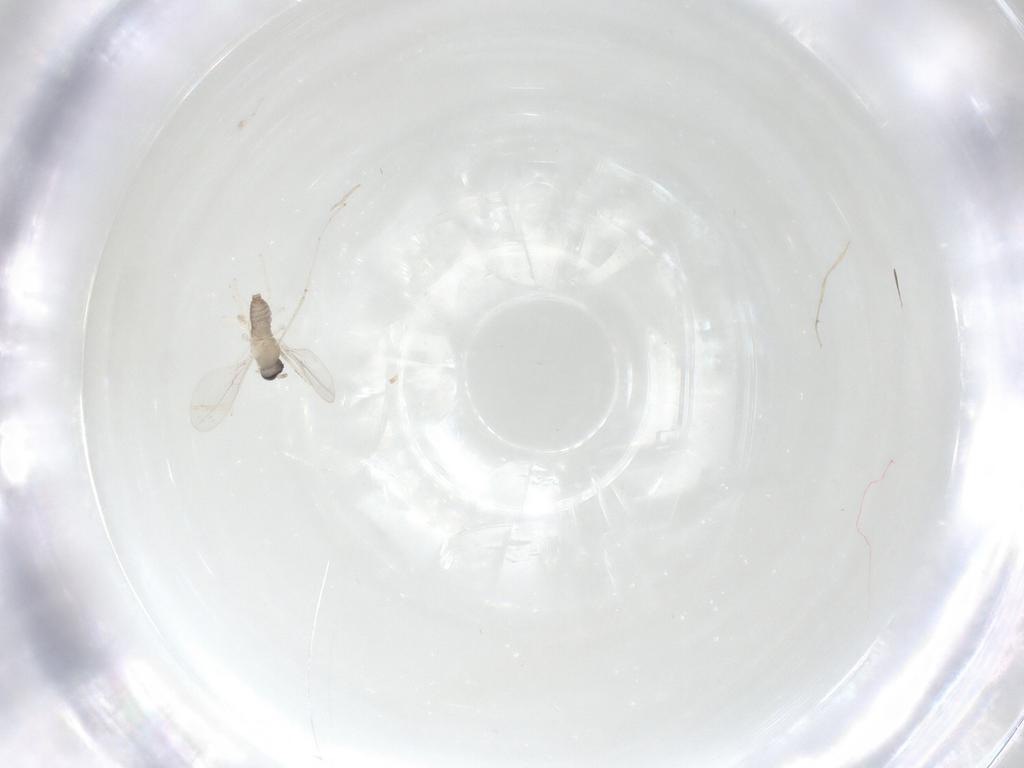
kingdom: Animalia
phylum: Arthropoda
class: Insecta
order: Diptera
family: Cecidomyiidae
